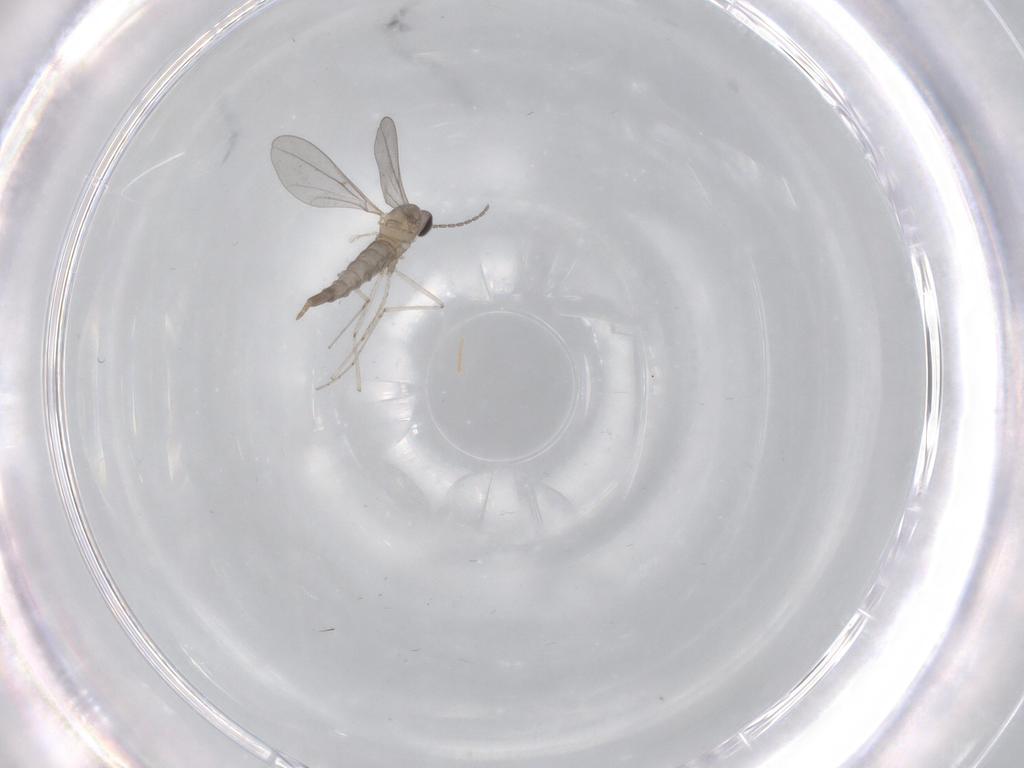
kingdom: Animalia
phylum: Arthropoda
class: Insecta
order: Diptera
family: Cecidomyiidae
